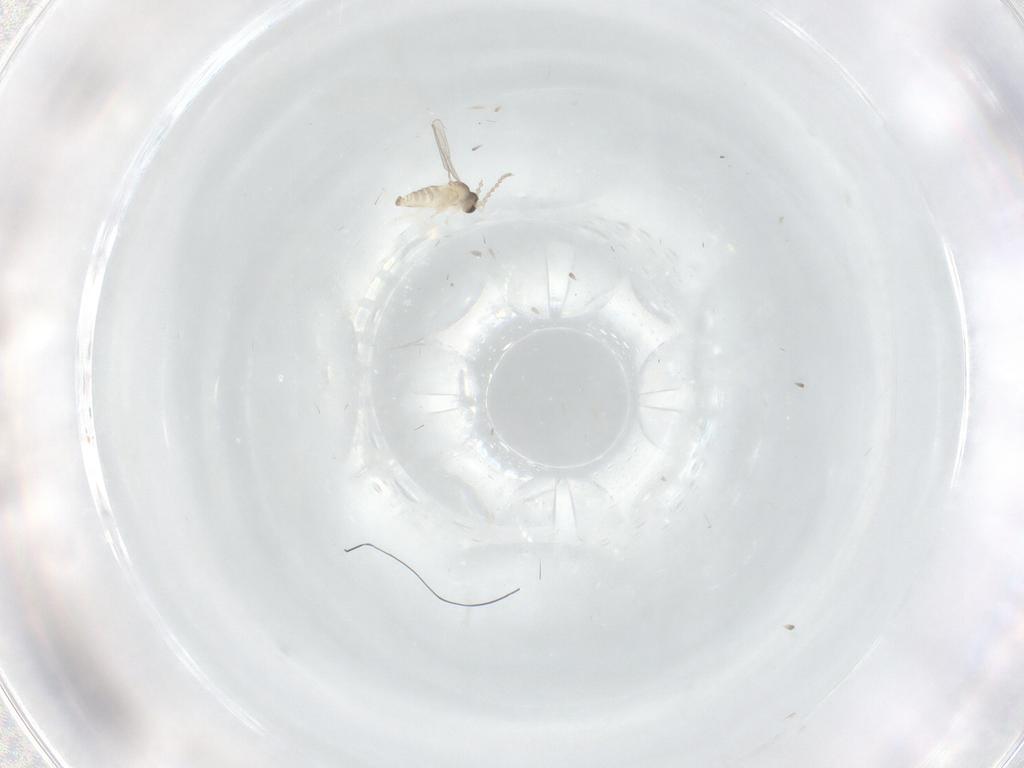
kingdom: Animalia
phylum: Arthropoda
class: Insecta
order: Diptera
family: Cecidomyiidae
